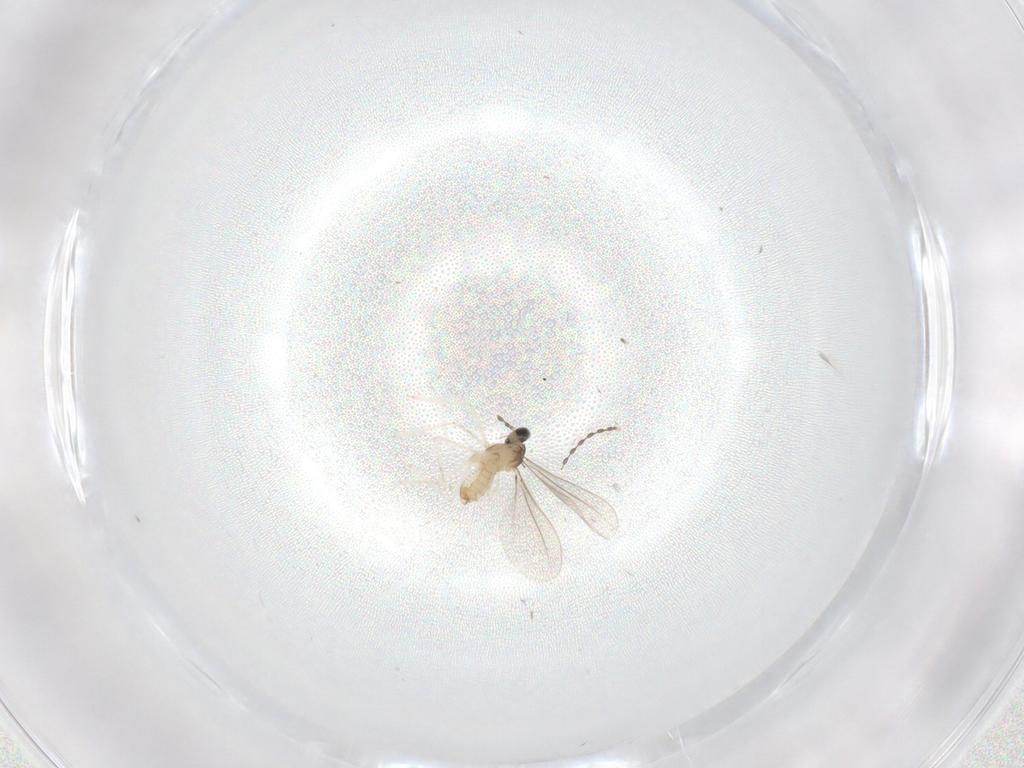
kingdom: Animalia
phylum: Arthropoda
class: Insecta
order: Diptera
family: Cecidomyiidae
